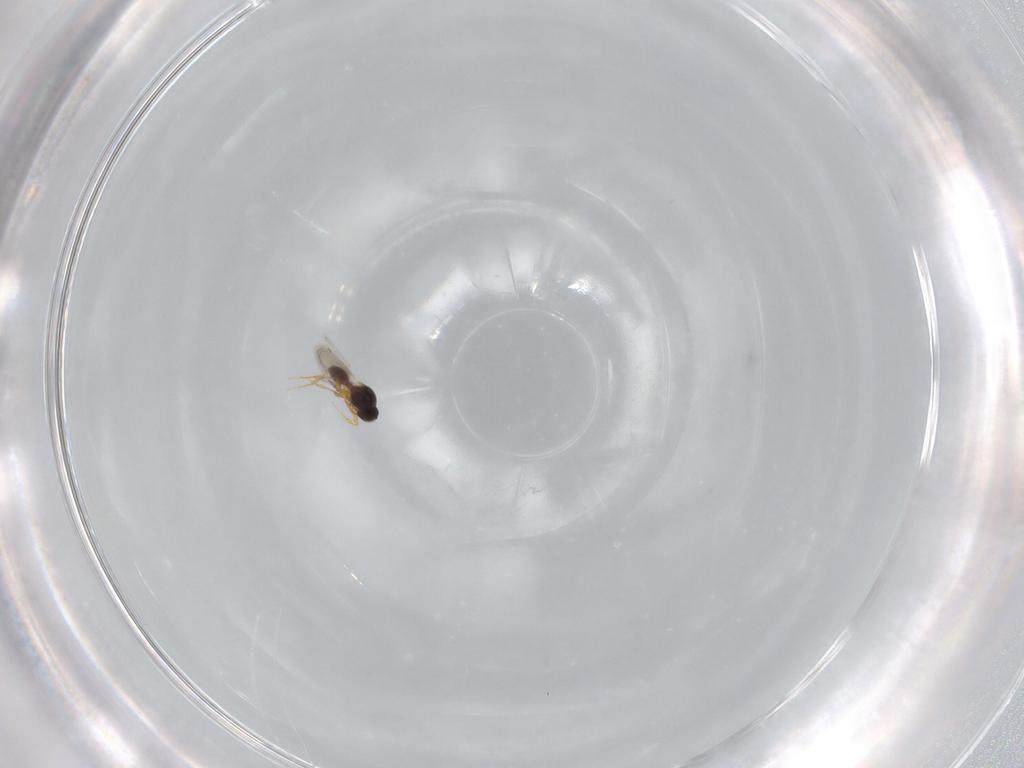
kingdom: Animalia
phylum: Arthropoda
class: Insecta
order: Hymenoptera
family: Platygastridae
